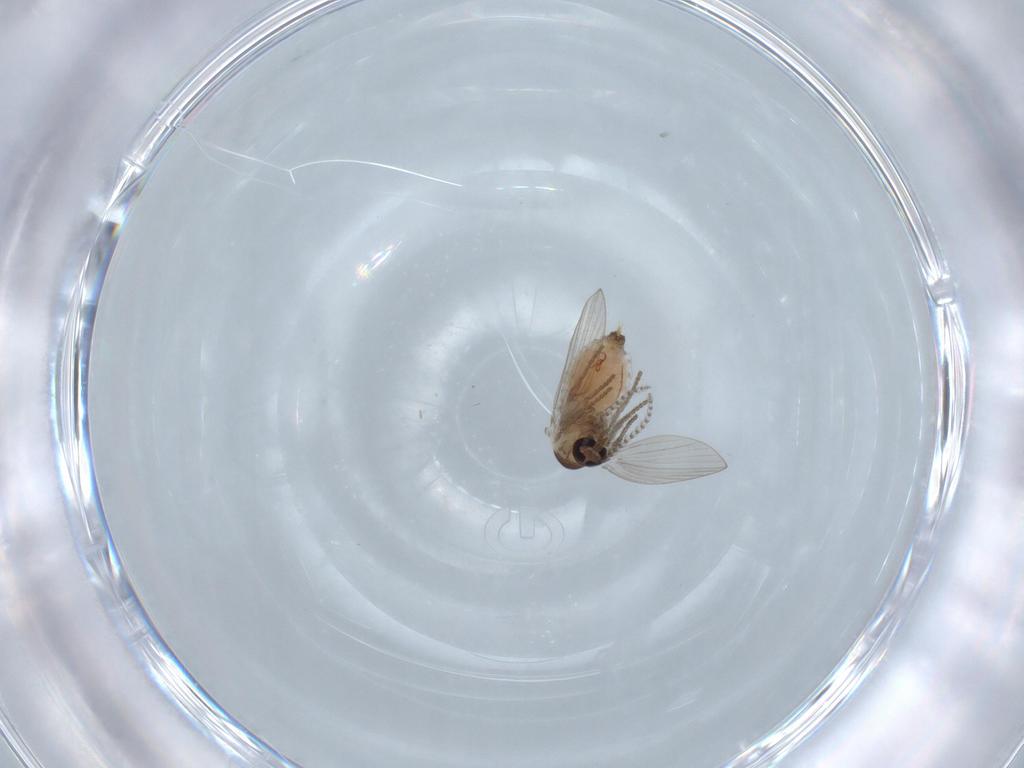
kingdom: Animalia
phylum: Arthropoda
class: Insecta
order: Diptera
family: Psychodidae
